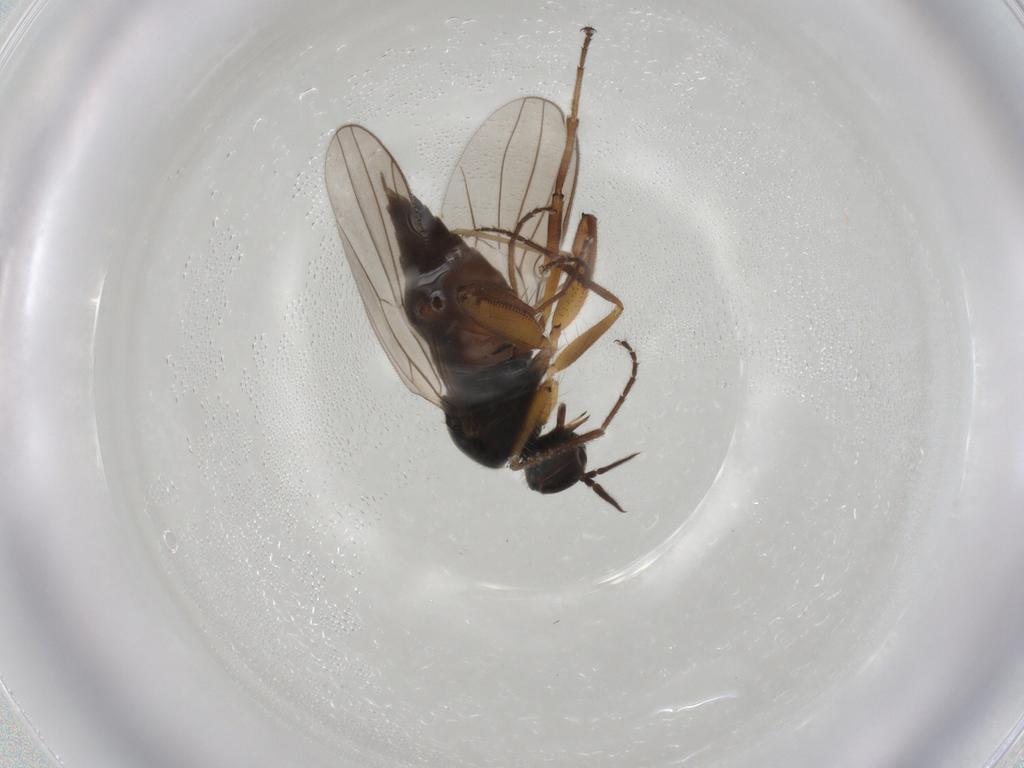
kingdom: Animalia
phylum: Arthropoda
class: Insecta
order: Diptera
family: Hybotidae
